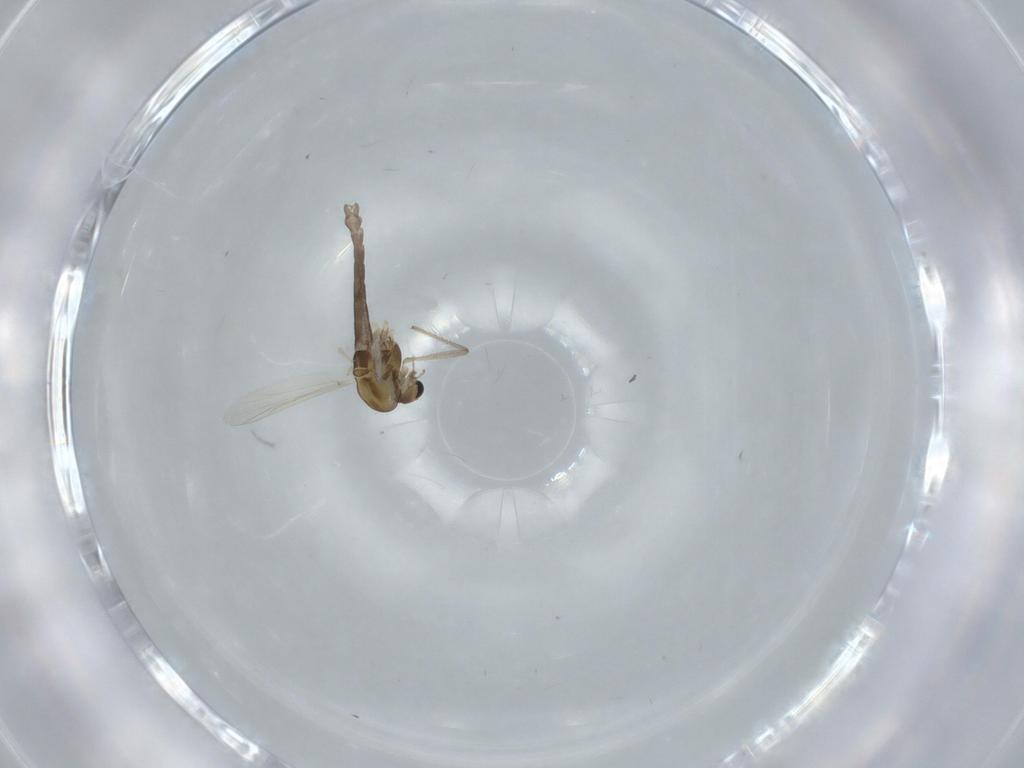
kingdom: Animalia
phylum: Arthropoda
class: Insecta
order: Diptera
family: Chironomidae
